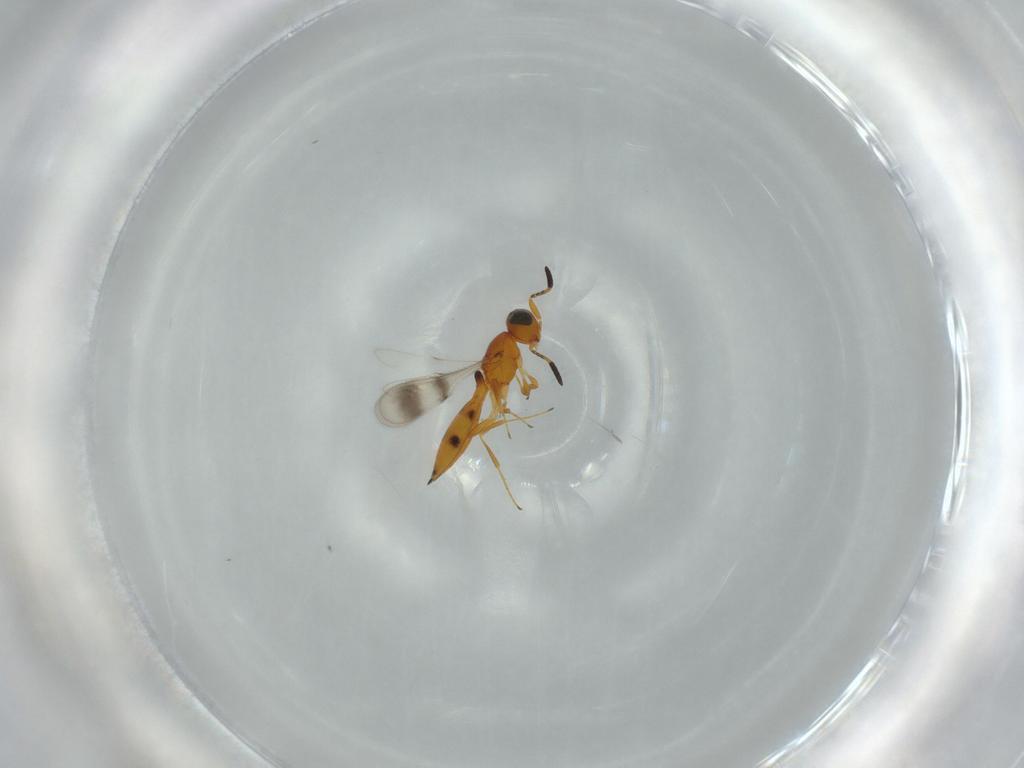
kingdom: Animalia
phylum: Arthropoda
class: Insecta
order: Hymenoptera
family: Scelionidae
